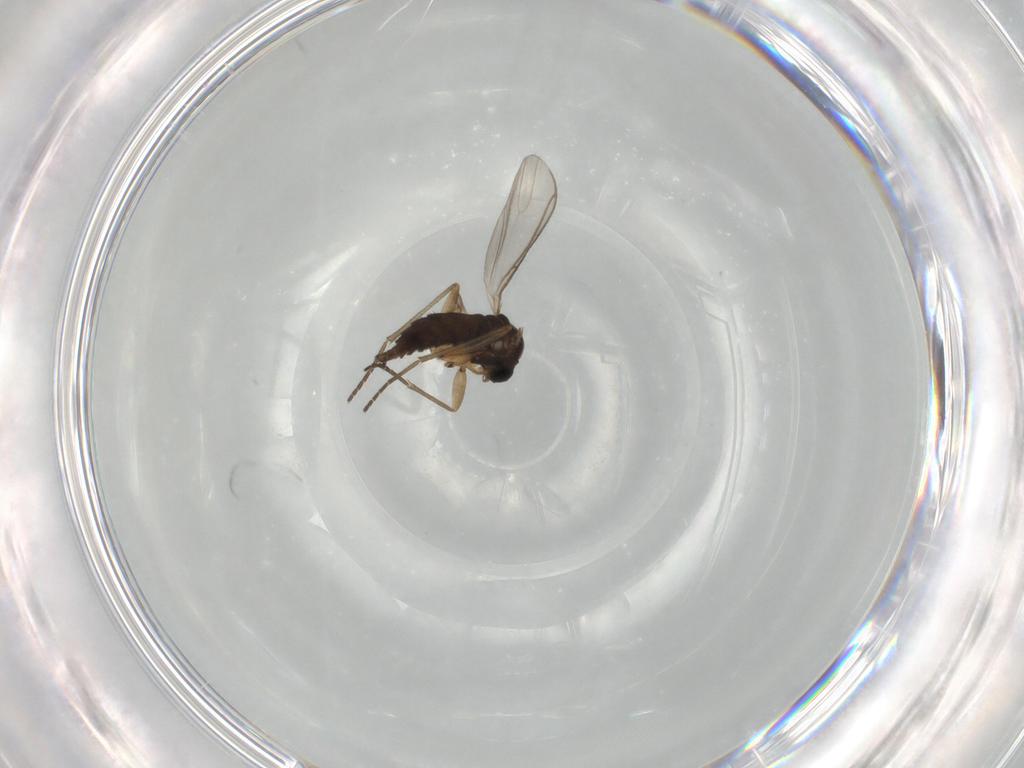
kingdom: Animalia
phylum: Arthropoda
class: Insecta
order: Diptera
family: Sciaridae
